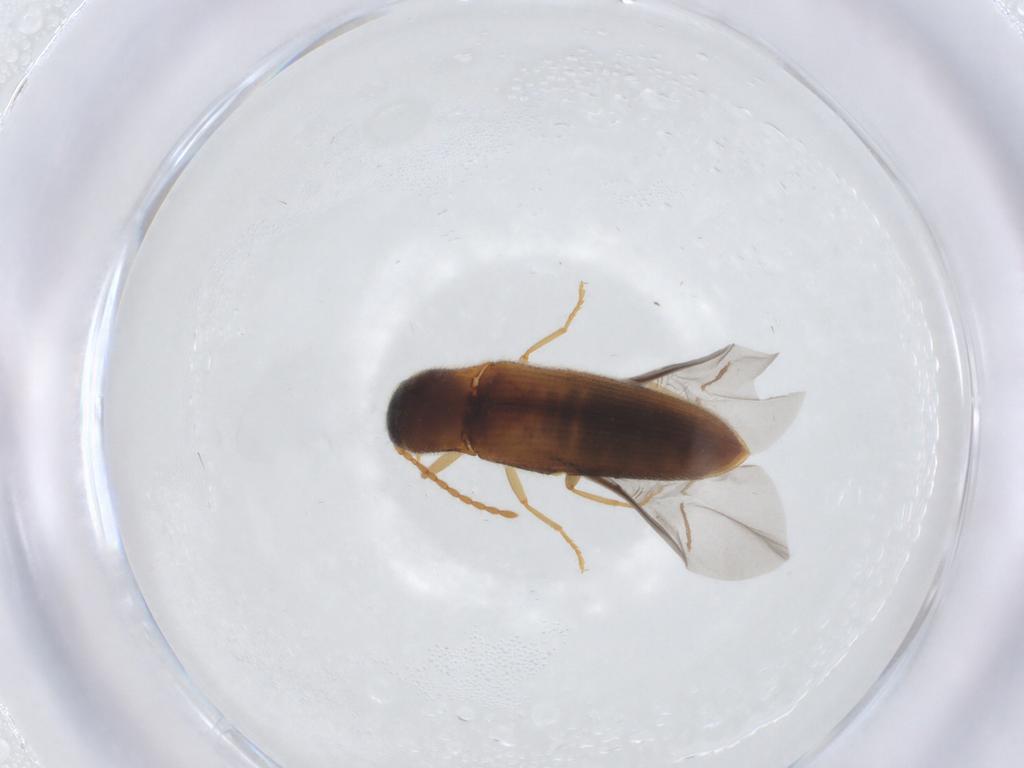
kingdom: Animalia
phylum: Arthropoda
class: Insecta
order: Coleoptera
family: Elateridae
